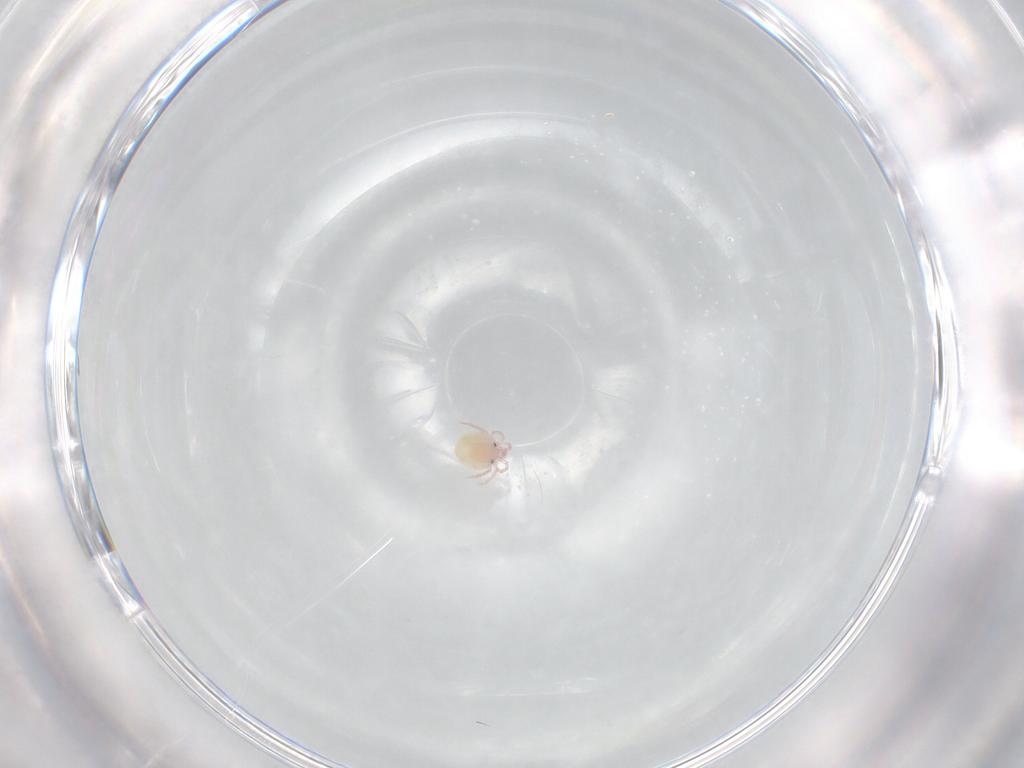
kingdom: Animalia
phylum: Arthropoda
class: Arachnida
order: Trombidiformes
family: Lebertiidae
